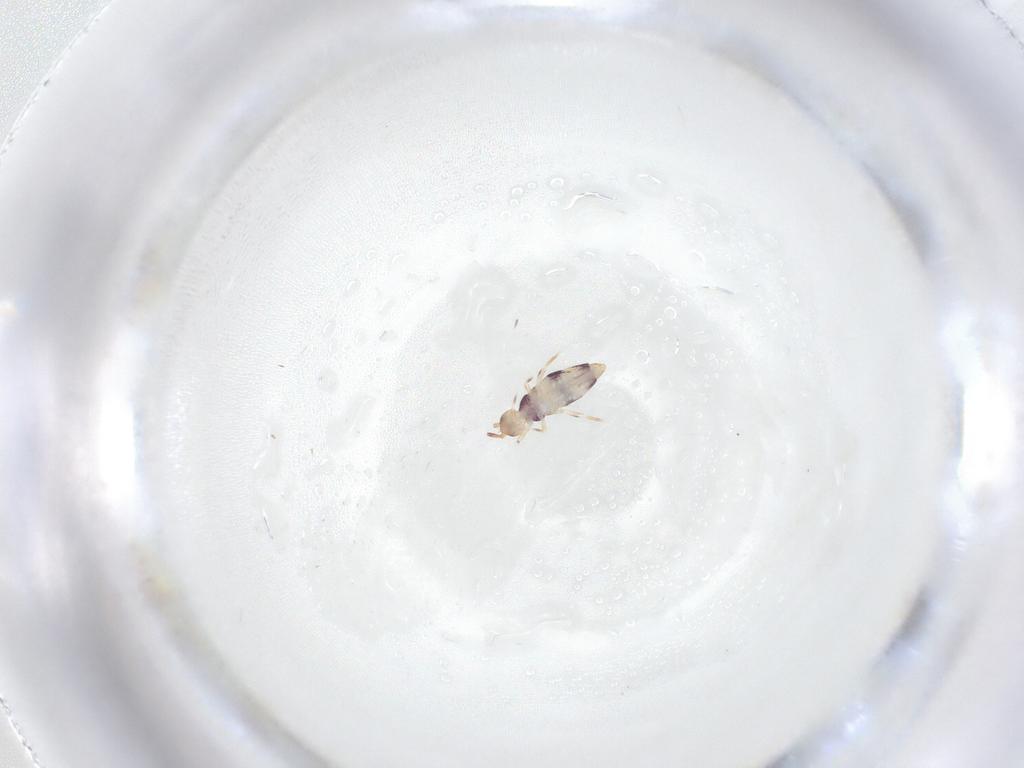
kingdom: Animalia
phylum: Arthropoda
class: Collembola
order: Entomobryomorpha
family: Entomobryidae
